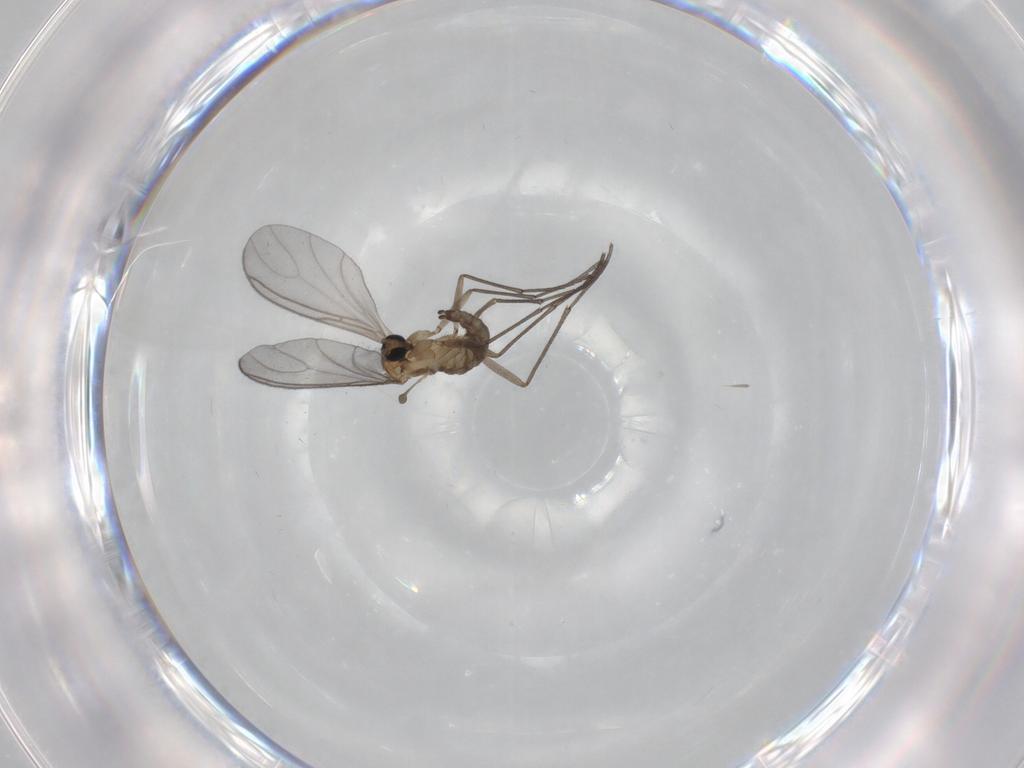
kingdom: Animalia
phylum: Arthropoda
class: Insecta
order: Diptera
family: Sciaridae
